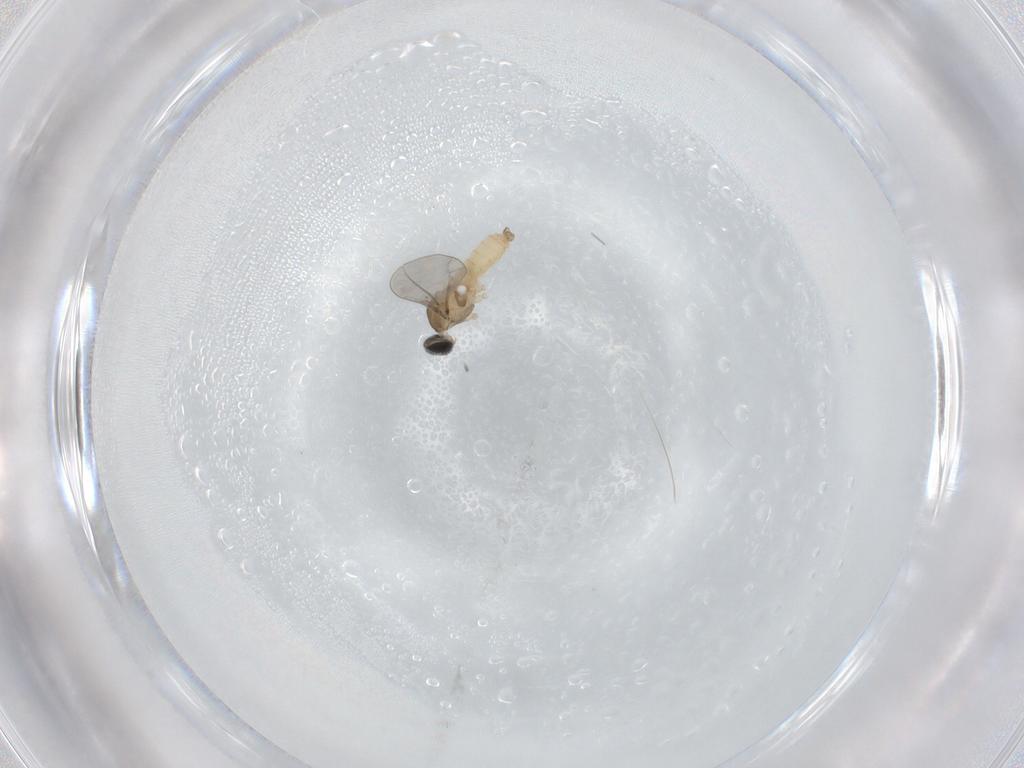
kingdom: Animalia
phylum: Arthropoda
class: Insecta
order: Diptera
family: Cecidomyiidae
